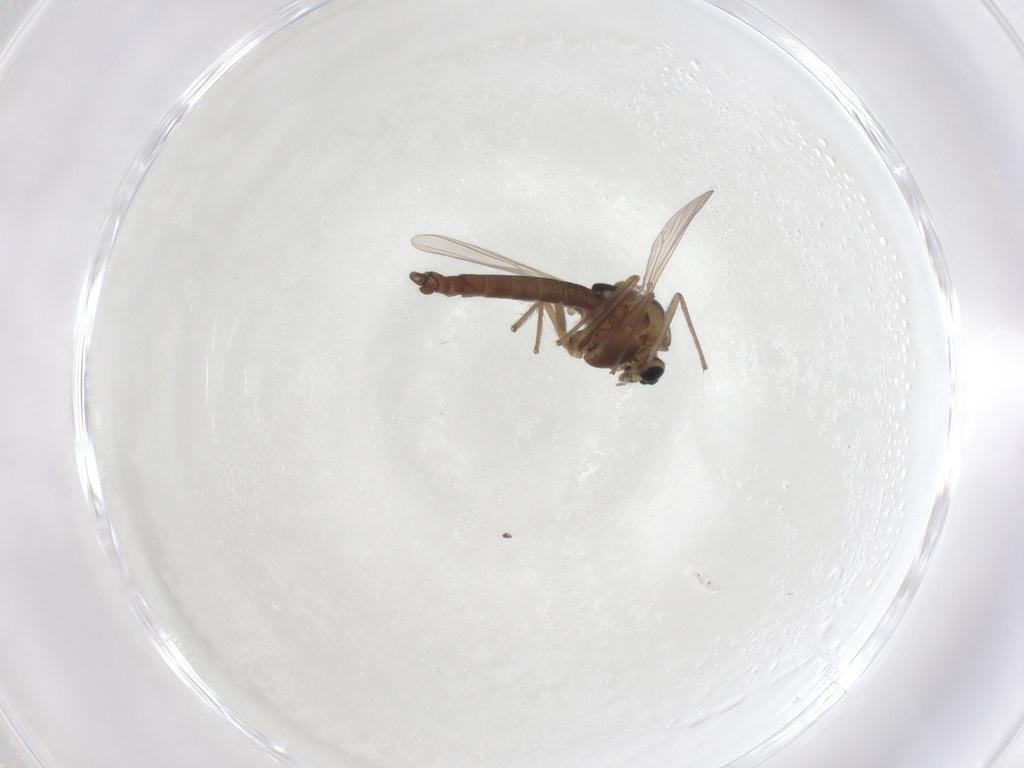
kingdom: Animalia
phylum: Arthropoda
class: Insecta
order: Diptera
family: Chironomidae
